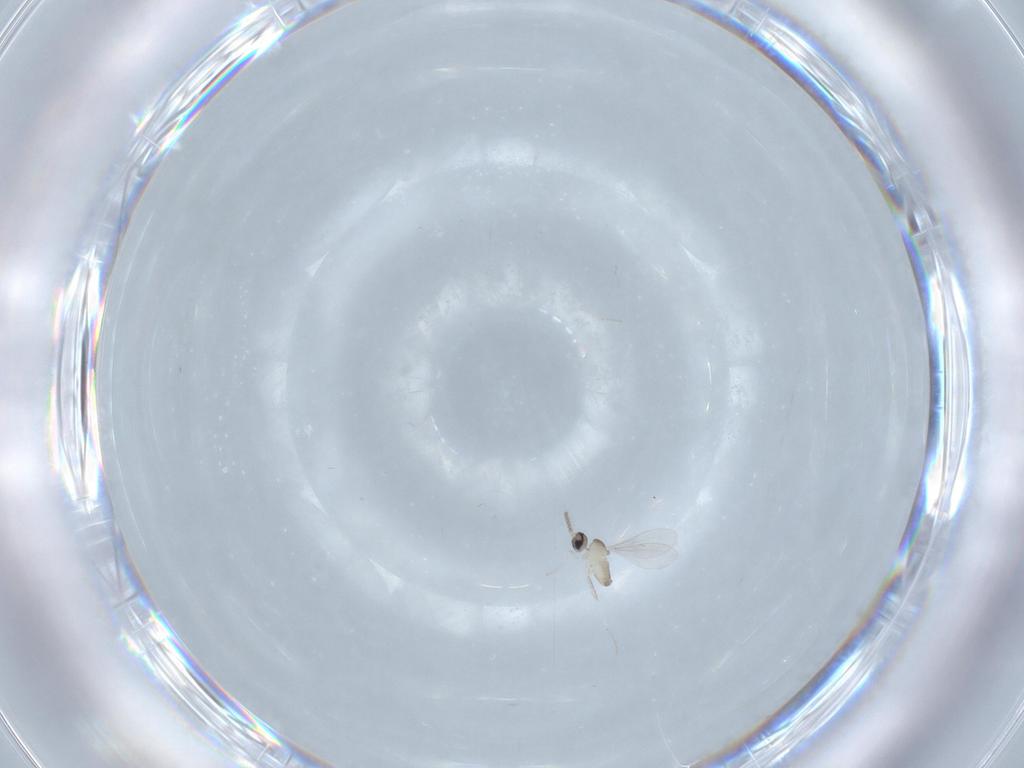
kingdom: Animalia
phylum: Arthropoda
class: Insecta
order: Diptera
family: Cecidomyiidae
